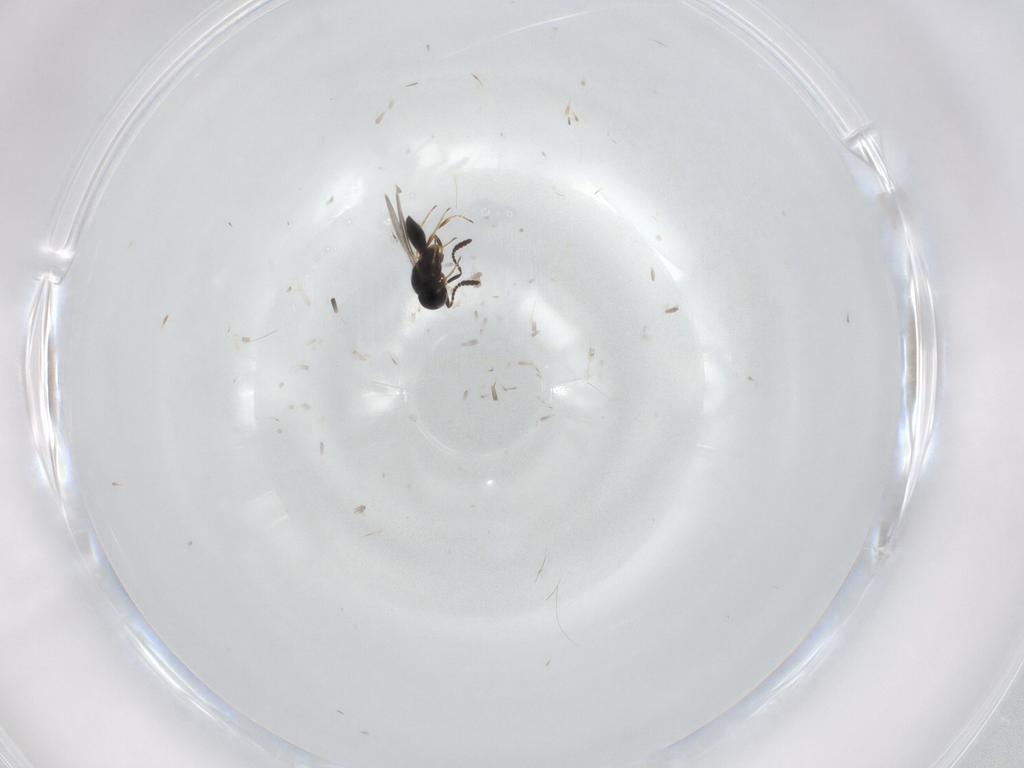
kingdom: Animalia
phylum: Arthropoda
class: Insecta
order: Hymenoptera
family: Scelionidae
